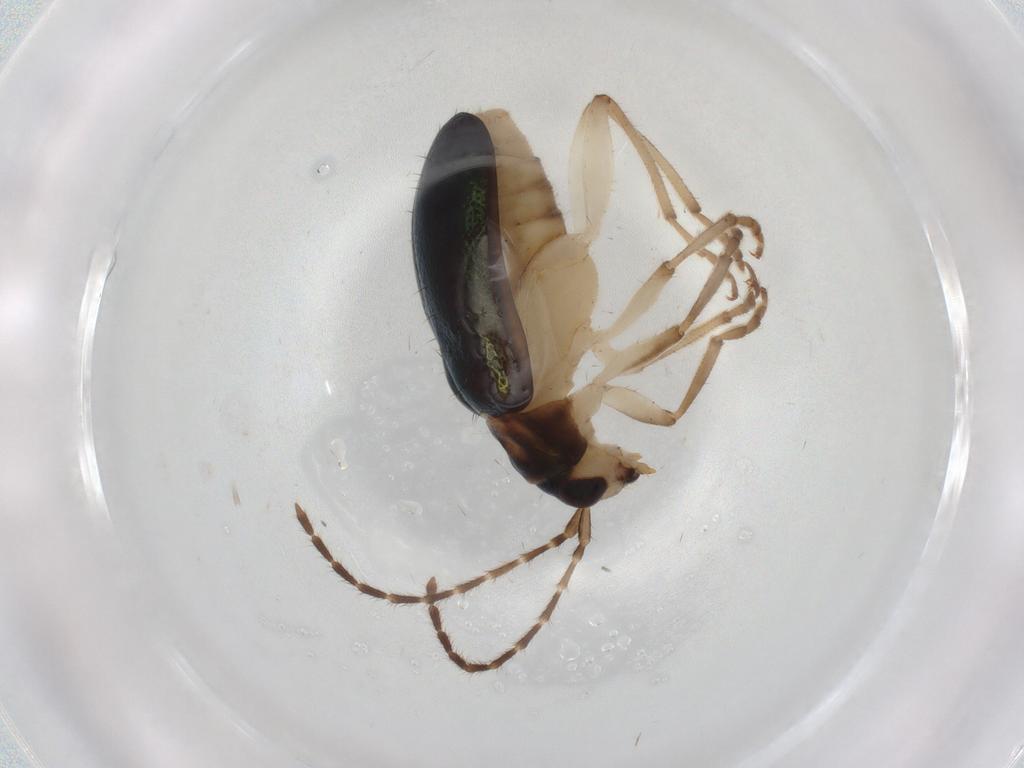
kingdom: Animalia
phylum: Arthropoda
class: Insecta
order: Coleoptera
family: Chrysomelidae
